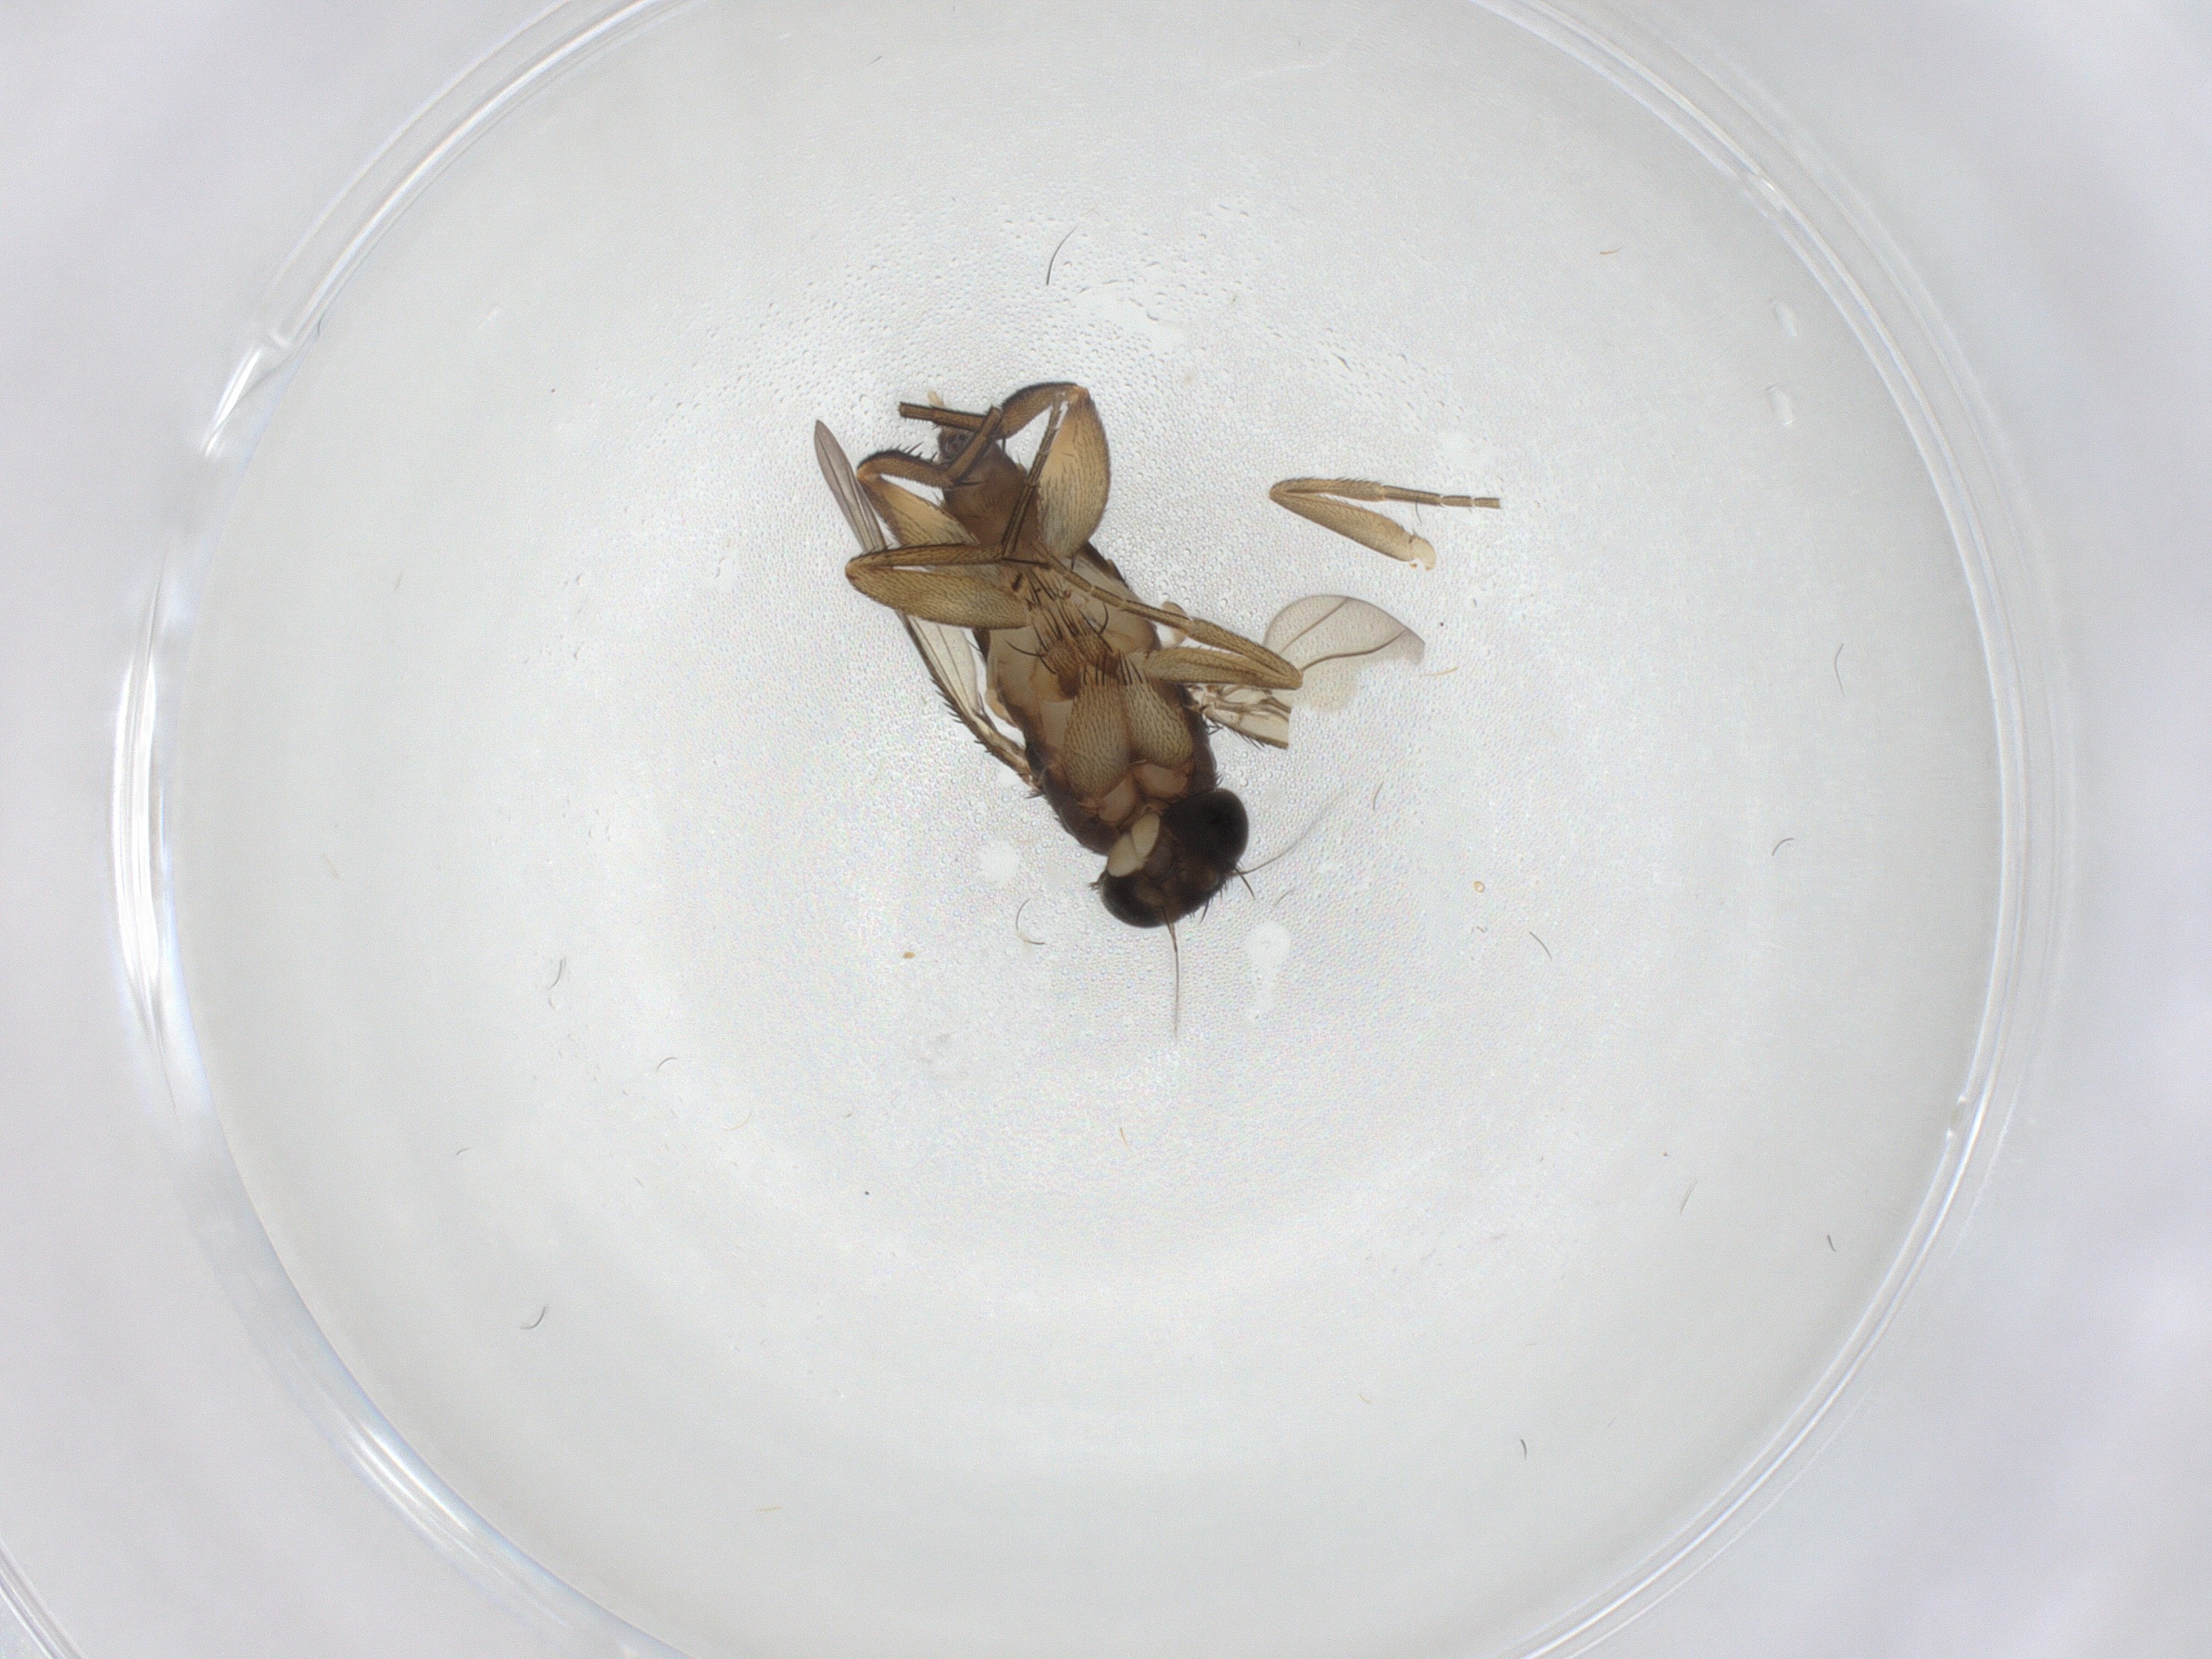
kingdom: Animalia
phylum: Arthropoda
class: Insecta
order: Diptera
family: Phoridae
